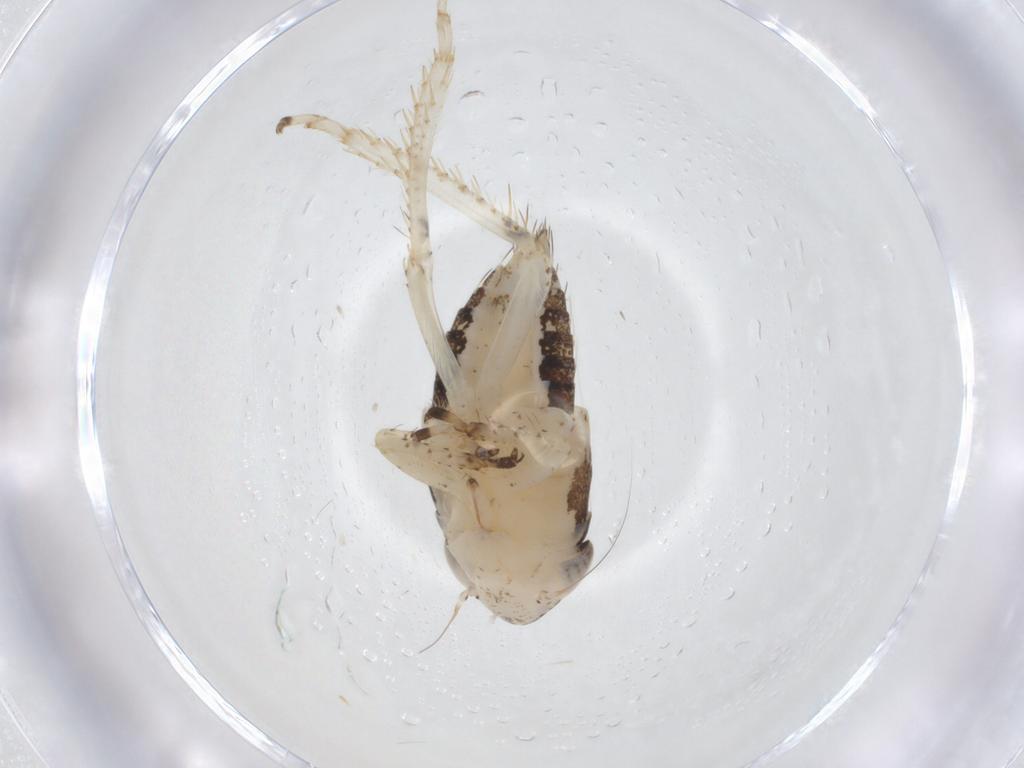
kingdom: Animalia
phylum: Arthropoda
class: Insecta
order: Hemiptera
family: Cicadellidae
